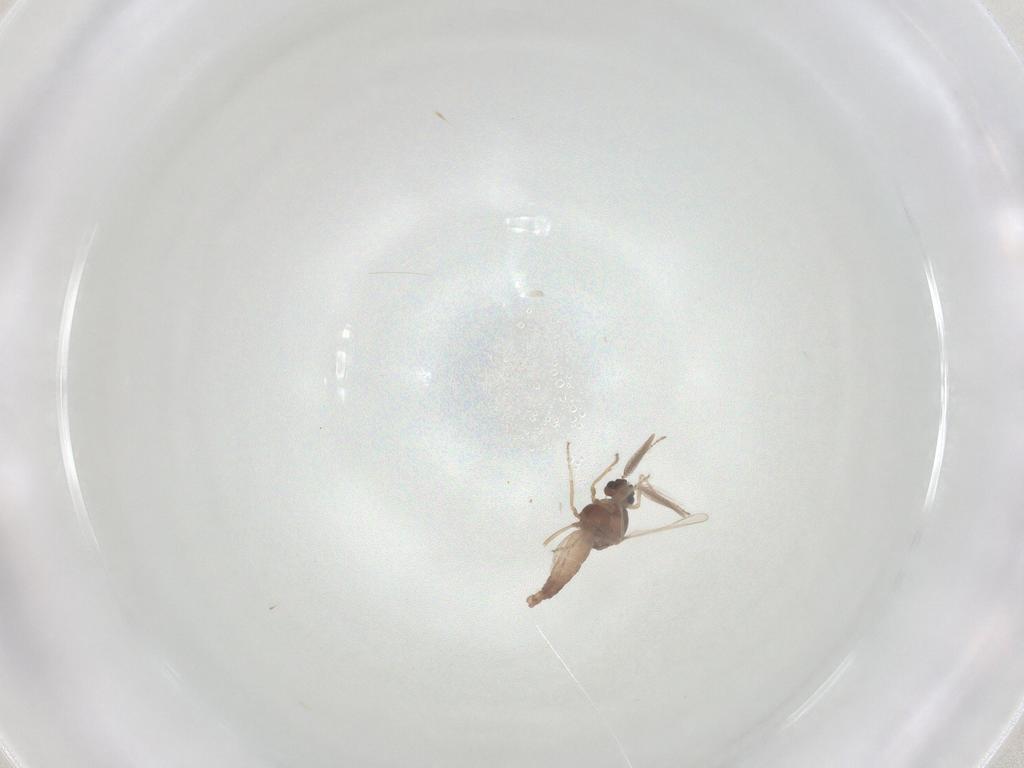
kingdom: Animalia
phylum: Arthropoda
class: Insecta
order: Diptera
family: Ceratopogonidae
